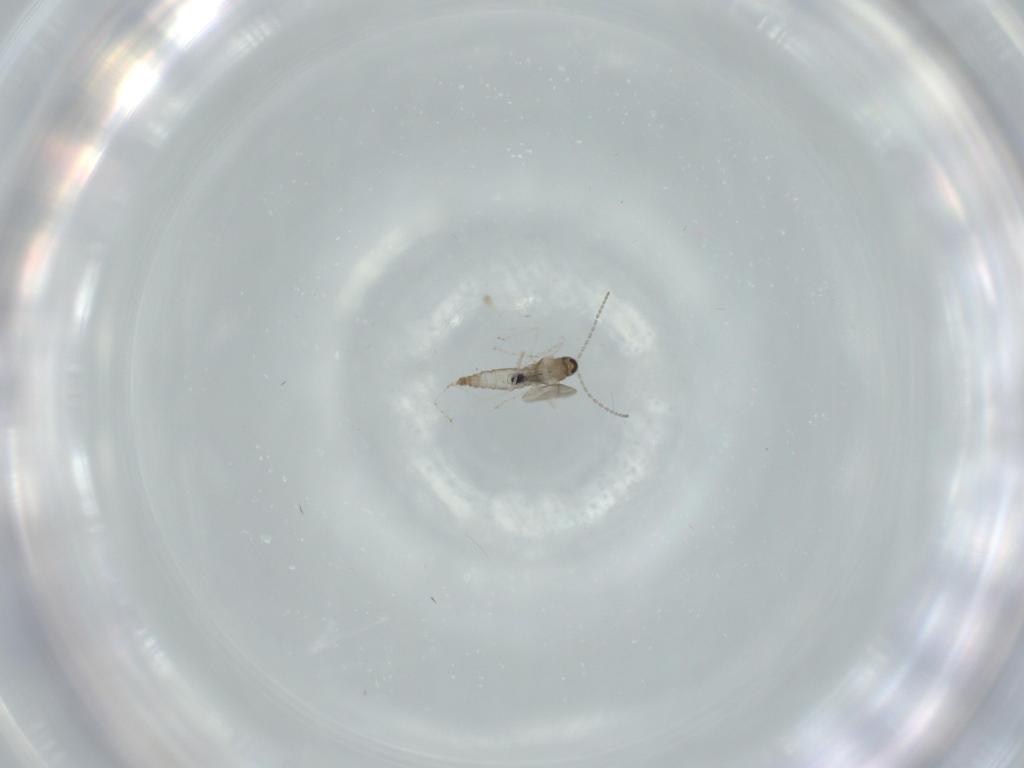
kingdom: Animalia
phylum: Arthropoda
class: Insecta
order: Diptera
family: Cecidomyiidae
